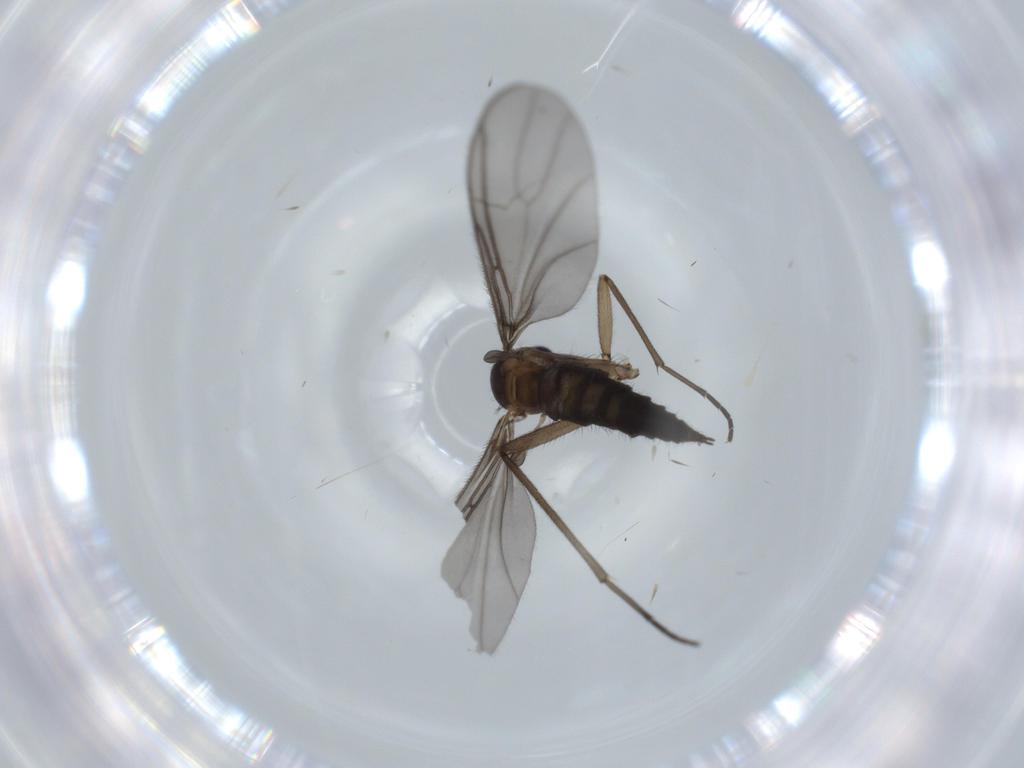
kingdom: Animalia
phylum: Arthropoda
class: Insecta
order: Diptera
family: Sciaridae
